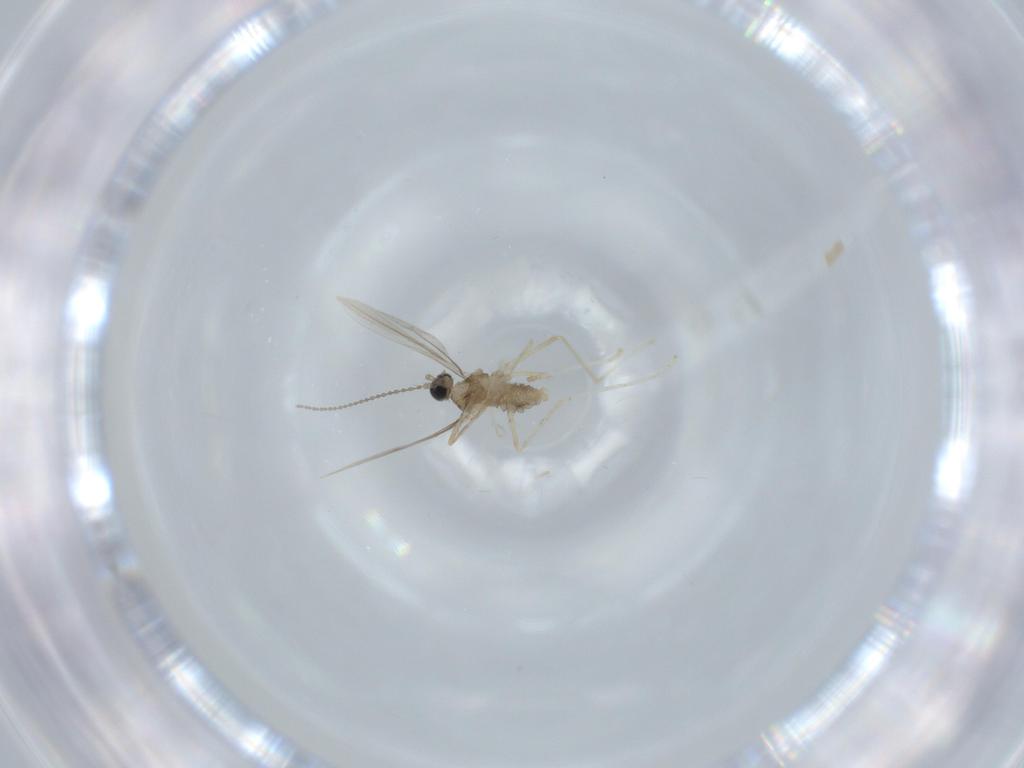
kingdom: Animalia
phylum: Arthropoda
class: Insecta
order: Diptera
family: Cecidomyiidae
